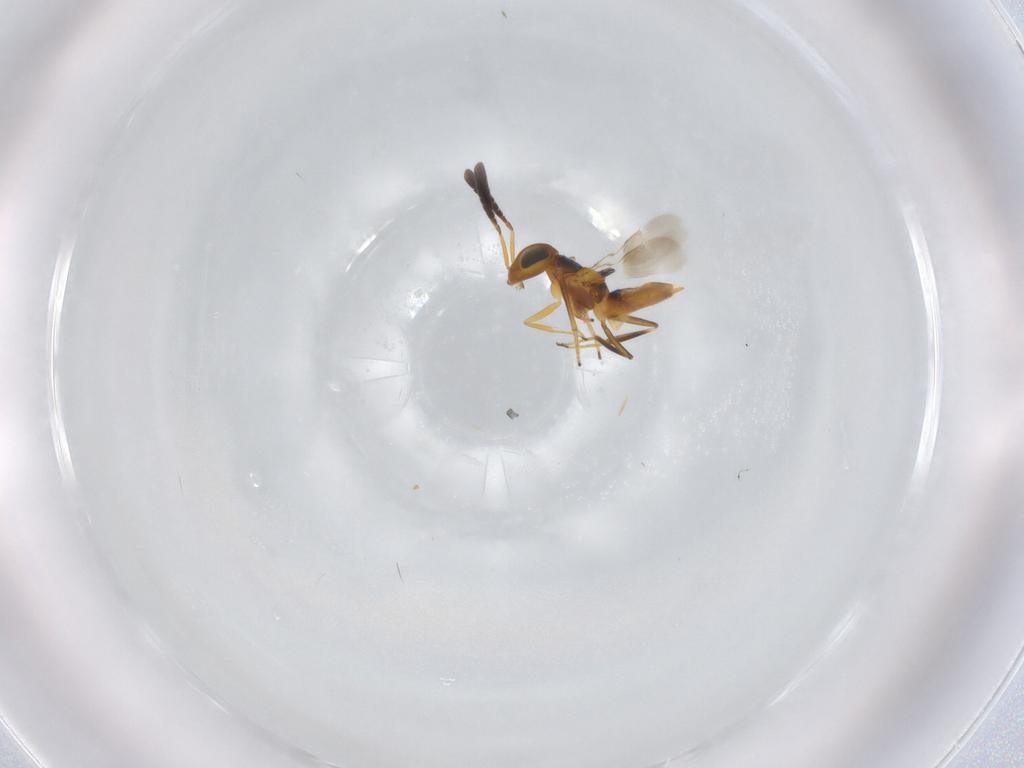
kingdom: Animalia
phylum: Arthropoda
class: Insecta
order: Hymenoptera
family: Encyrtidae
